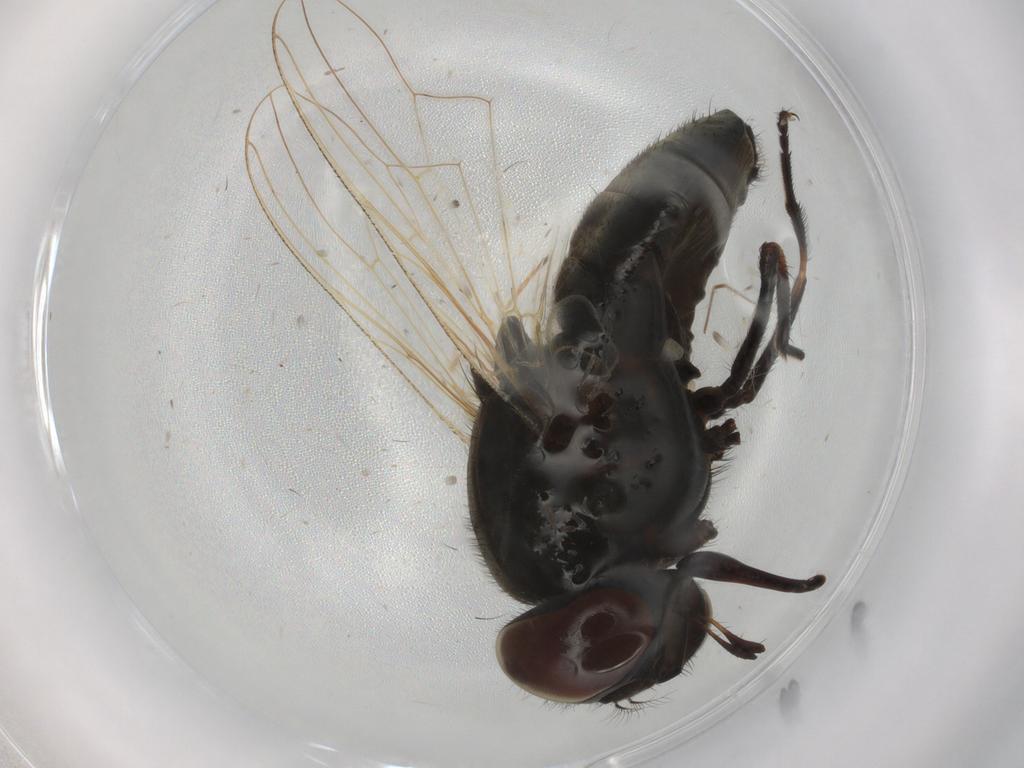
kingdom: Animalia
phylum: Arthropoda
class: Insecta
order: Diptera
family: Muscidae
